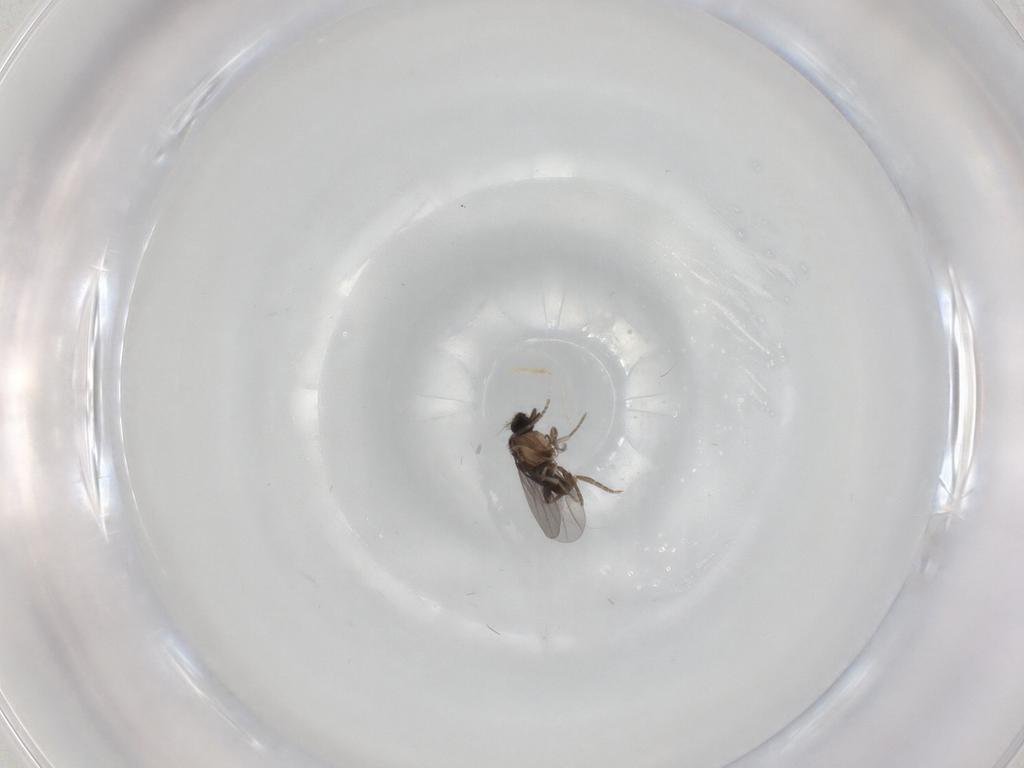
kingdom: Animalia
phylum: Arthropoda
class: Insecta
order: Diptera
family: Phoridae
